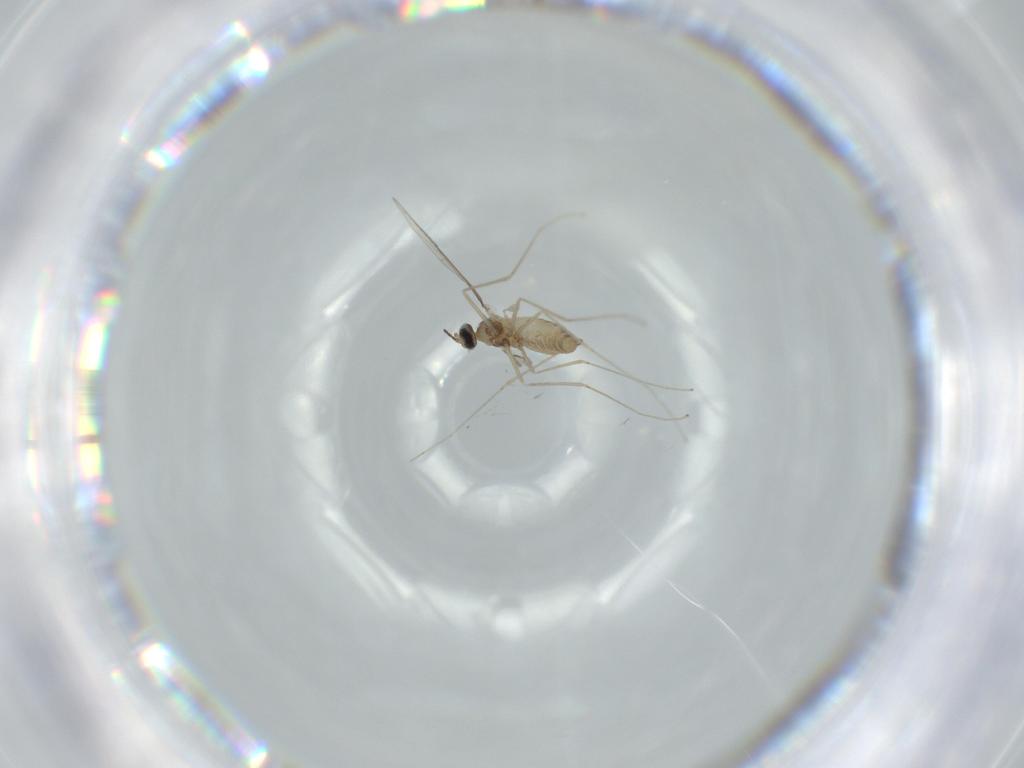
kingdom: Animalia
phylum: Arthropoda
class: Insecta
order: Diptera
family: Cecidomyiidae
